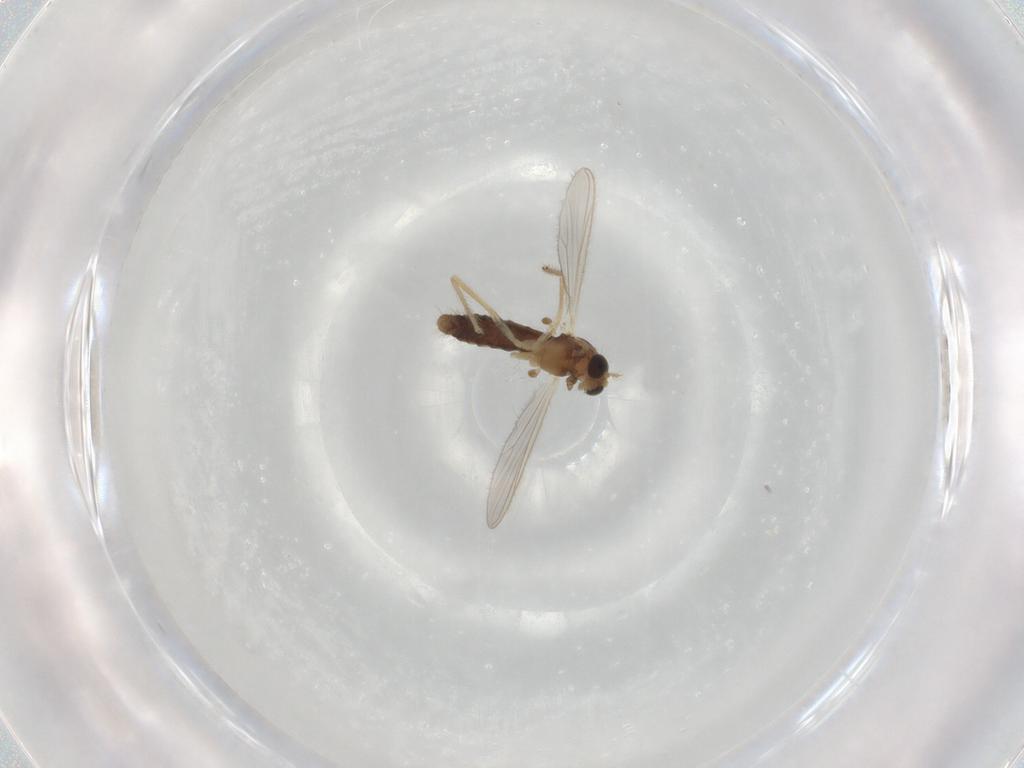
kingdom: Animalia
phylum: Arthropoda
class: Insecta
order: Diptera
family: Chironomidae
